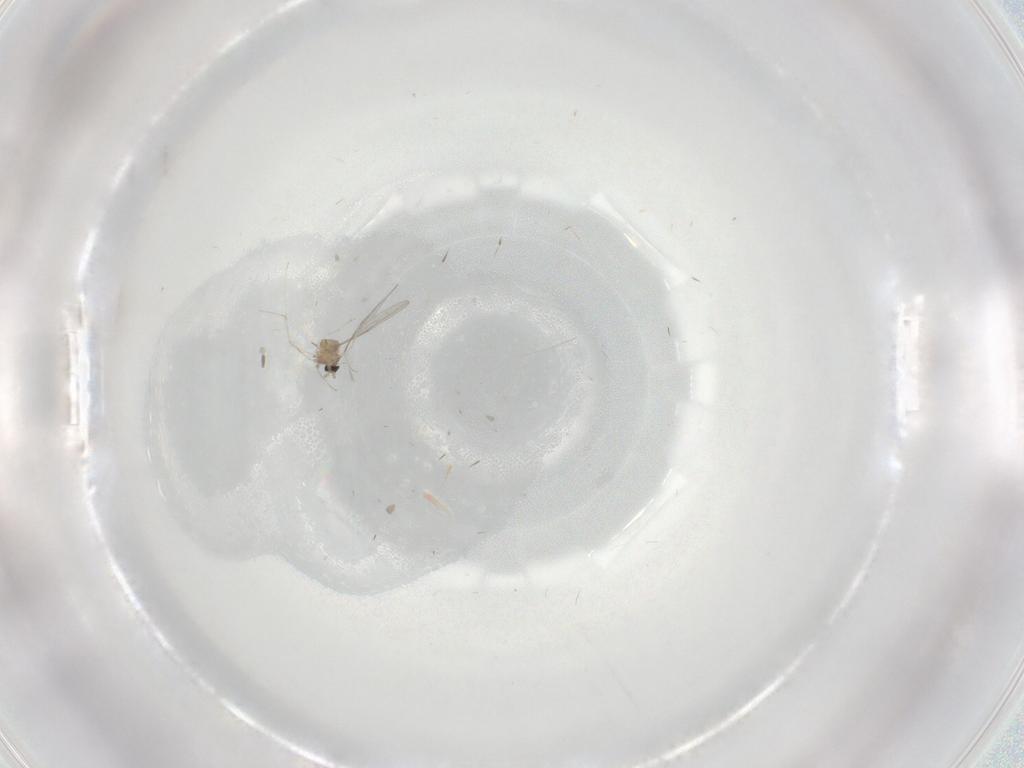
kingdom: Animalia
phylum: Arthropoda
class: Insecta
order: Diptera
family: Cecidomyiidae
